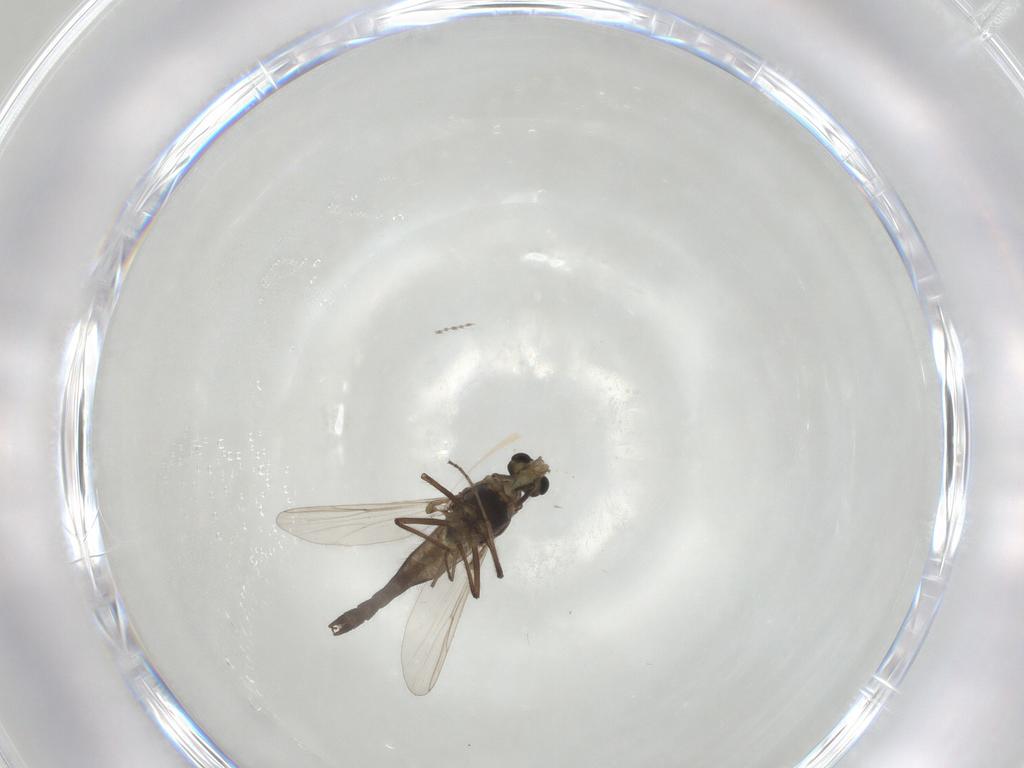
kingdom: Animalia
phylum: Arthropoda
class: Insecta
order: Diptera
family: Chironomidae
